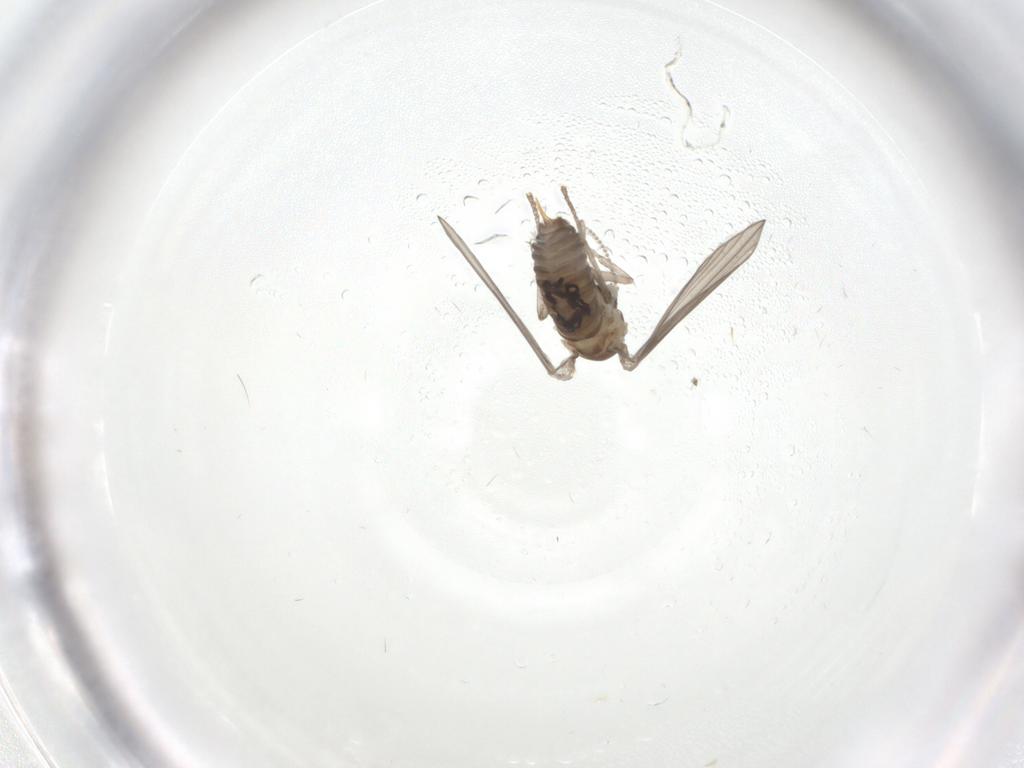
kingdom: Animalia
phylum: Arthropoda
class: Insecta
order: Diptera
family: Psychodidae
